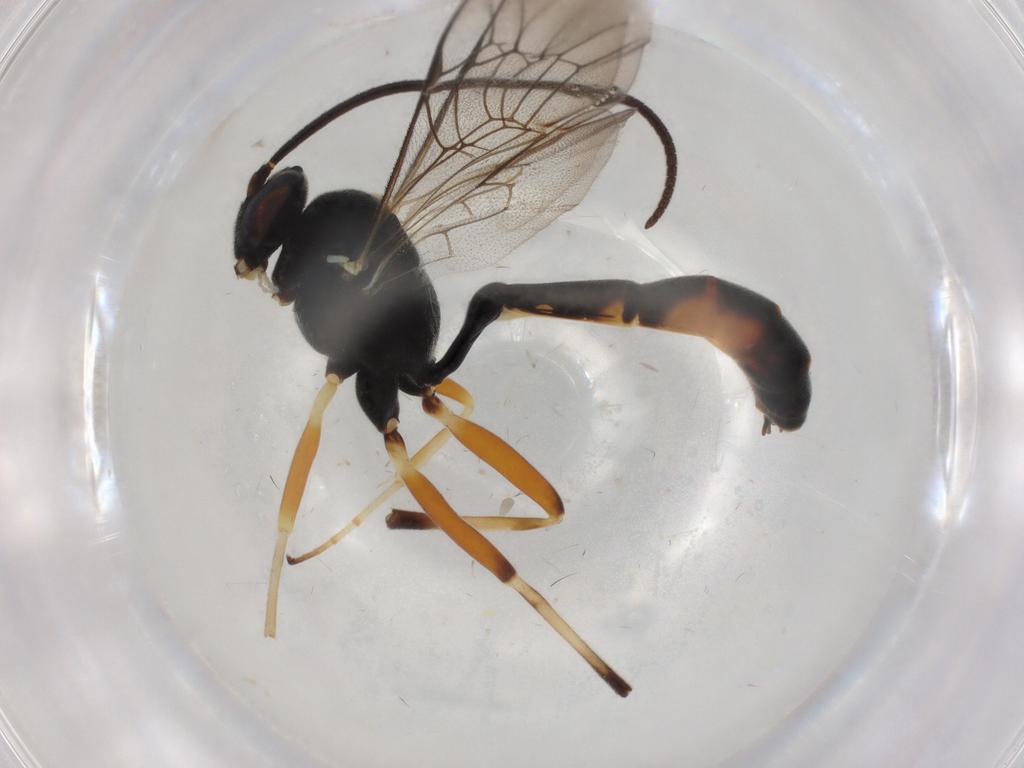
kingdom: Animalia
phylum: Arthropoda
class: Insecta
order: Hymenoptera
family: Ichneumonidae
